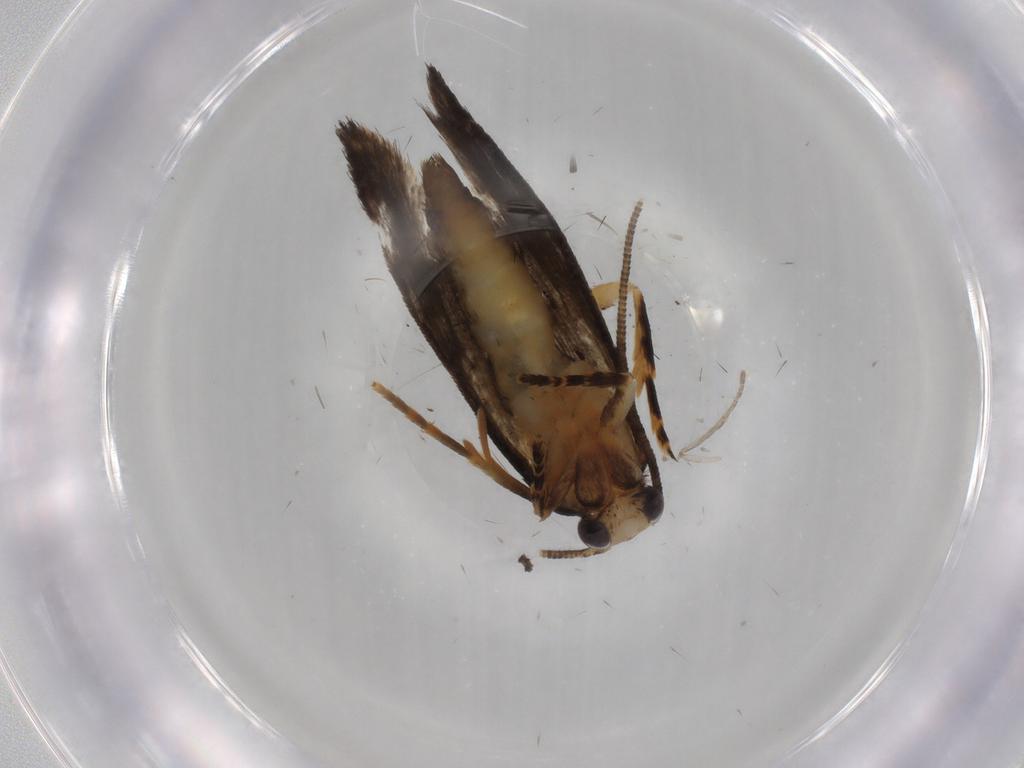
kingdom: Animalia
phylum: Arthropoda
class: Insecta
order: Lepidoptera
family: Tineidae
